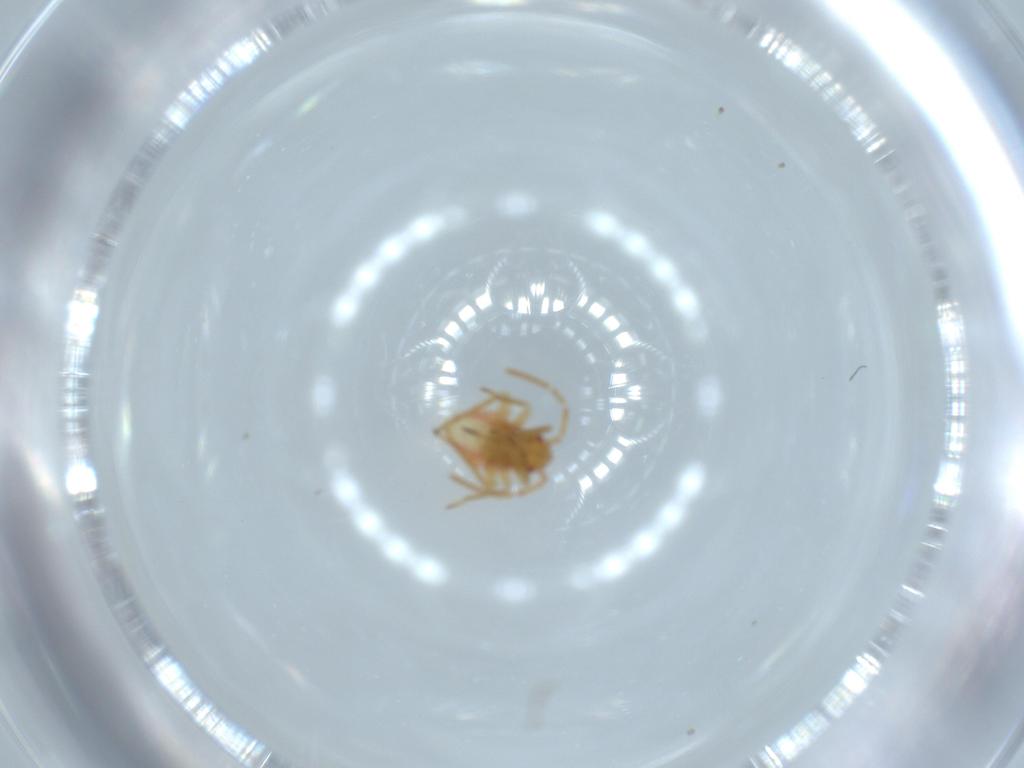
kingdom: Animalia
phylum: Arthropoda
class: Insecta
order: Hemiptera
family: Miridae
